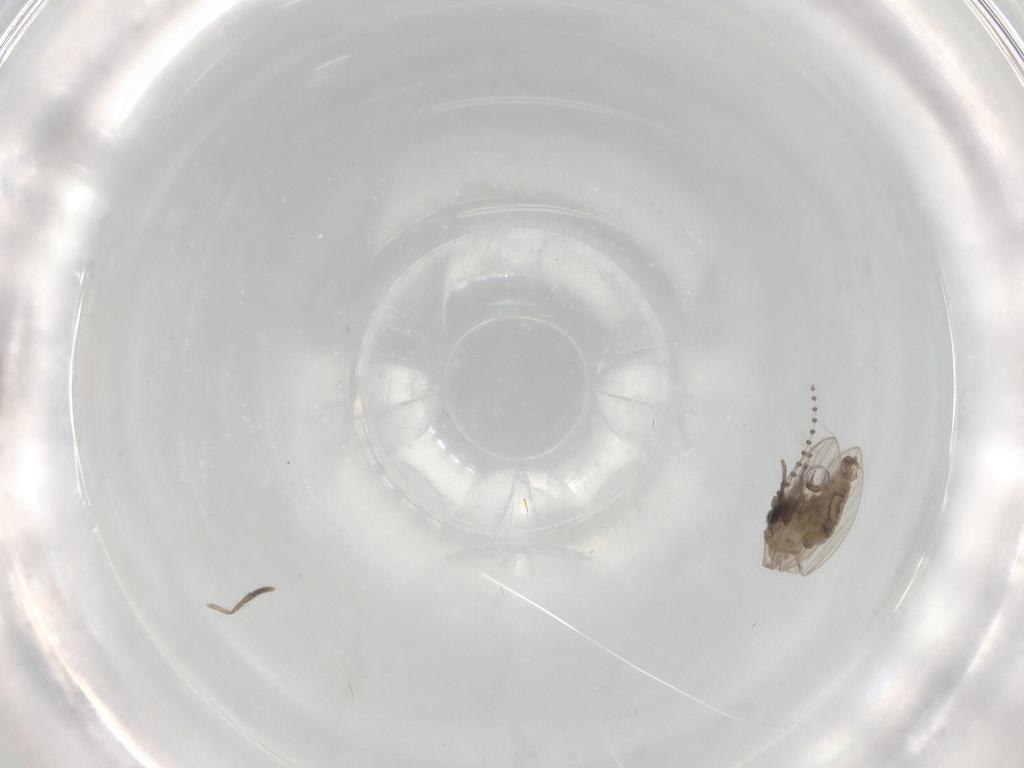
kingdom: Animalia
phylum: Arthropoda
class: Insecta
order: Diptera
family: Psychodidae
